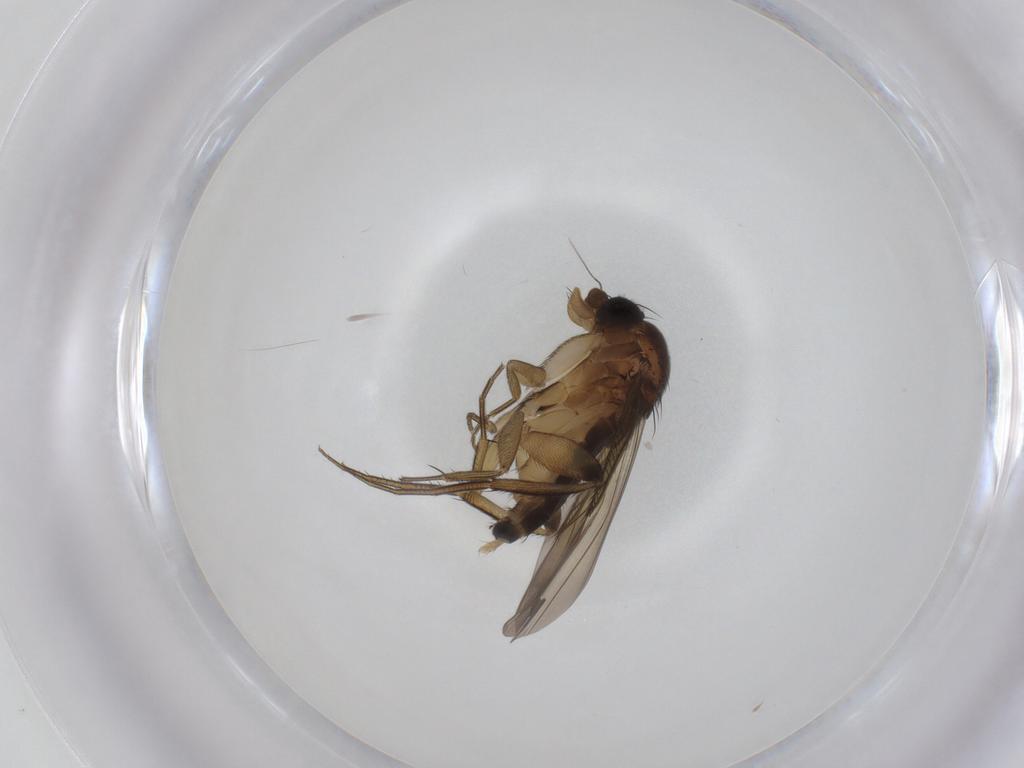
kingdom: Animalia
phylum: Arthropoda
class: Insecta
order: Diptera
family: Phoridae
